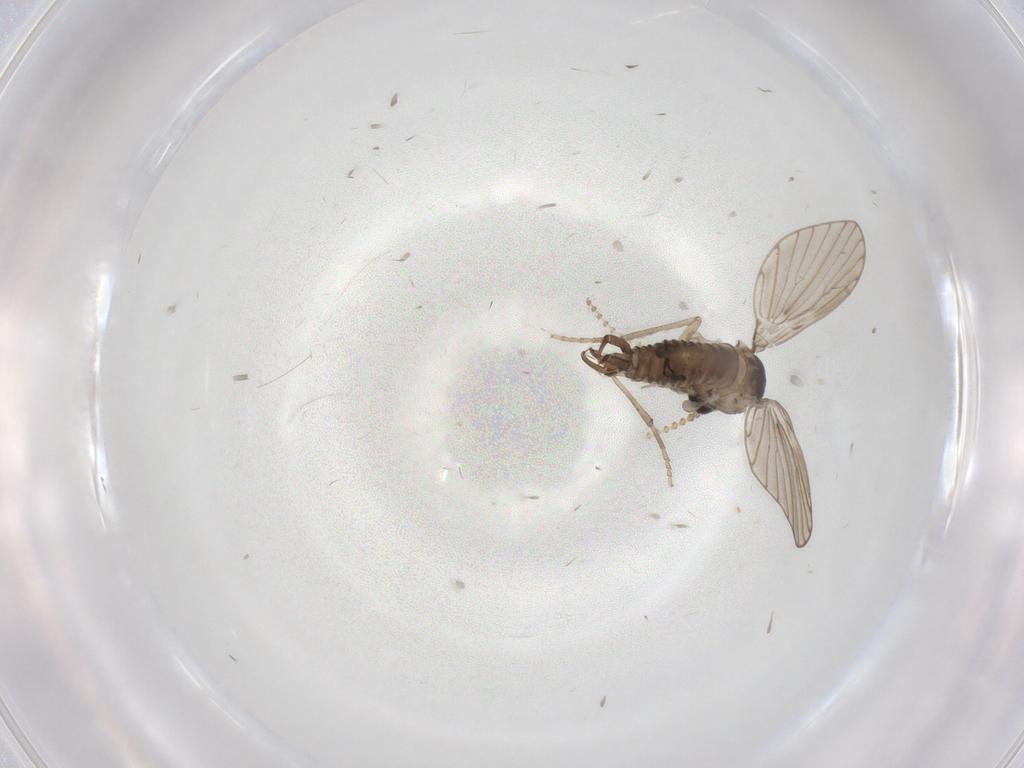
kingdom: Animalia
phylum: Arthropoda
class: Insecta
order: Diptera
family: Psychodidae
